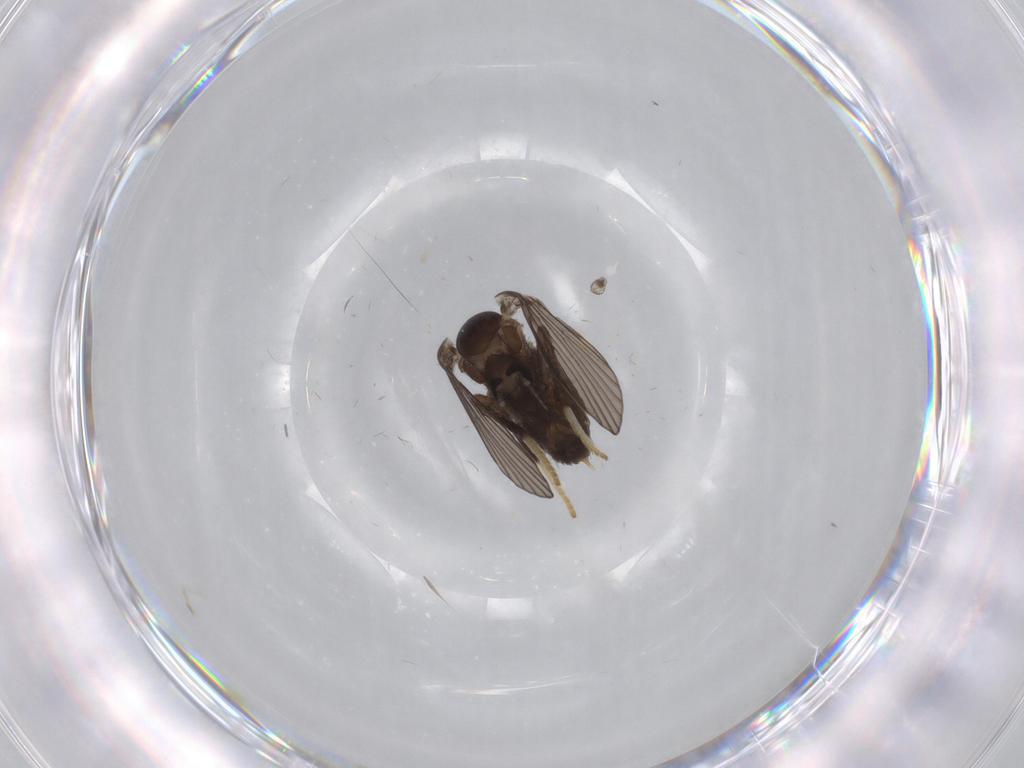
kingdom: Animalia
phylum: Arthropoda
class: Insecta
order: Diptera
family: Psychodidae
